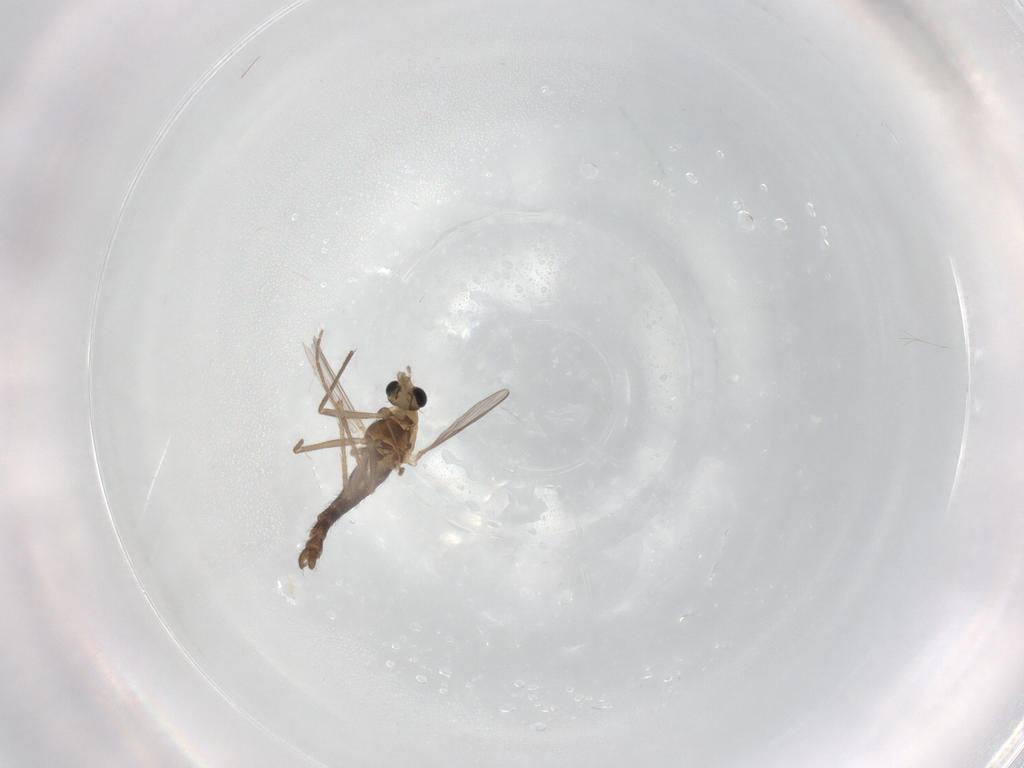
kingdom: Animalia
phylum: Arthropoda
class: Insecta
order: Diptera
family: Chironomidae
